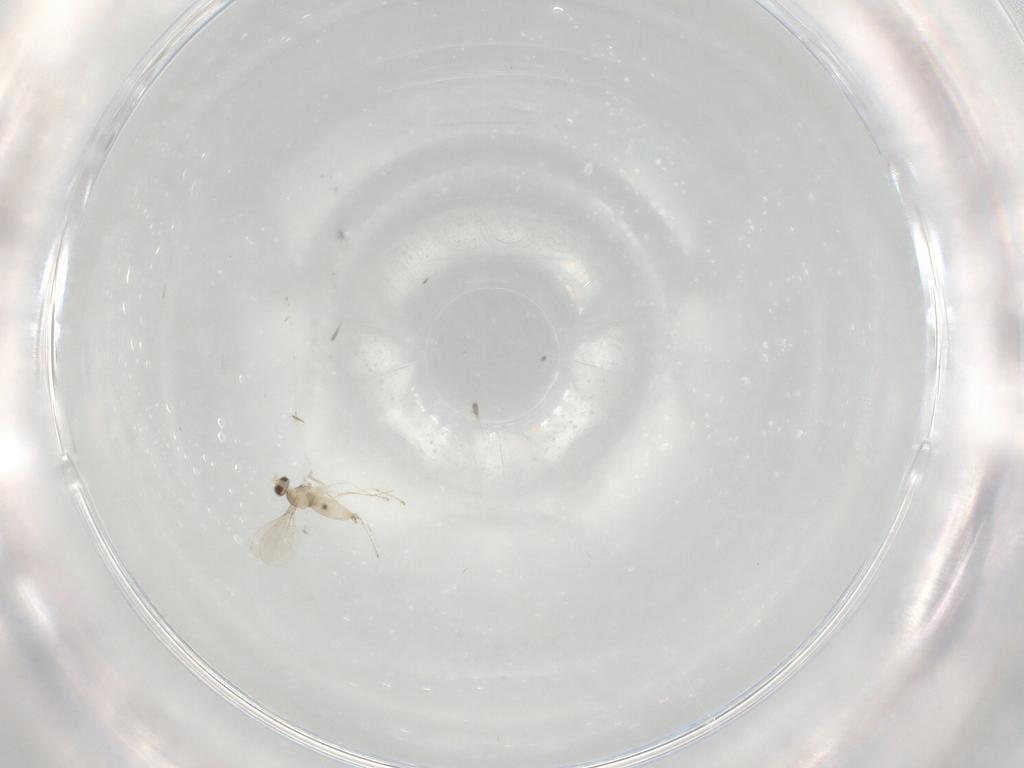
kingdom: Animalia
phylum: Arthropoda
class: Insecta
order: Diptera
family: Cecidomyiidae
